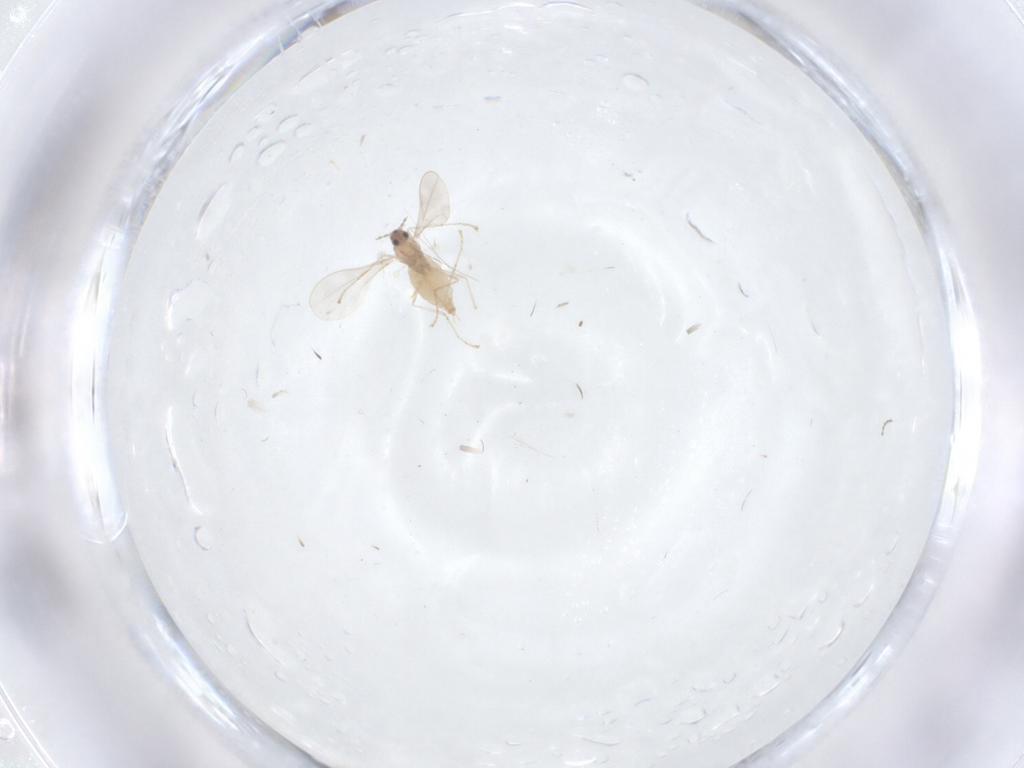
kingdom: Animalia
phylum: Arthropoda
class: Insecta
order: Diptera
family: Cecidomyiidae
